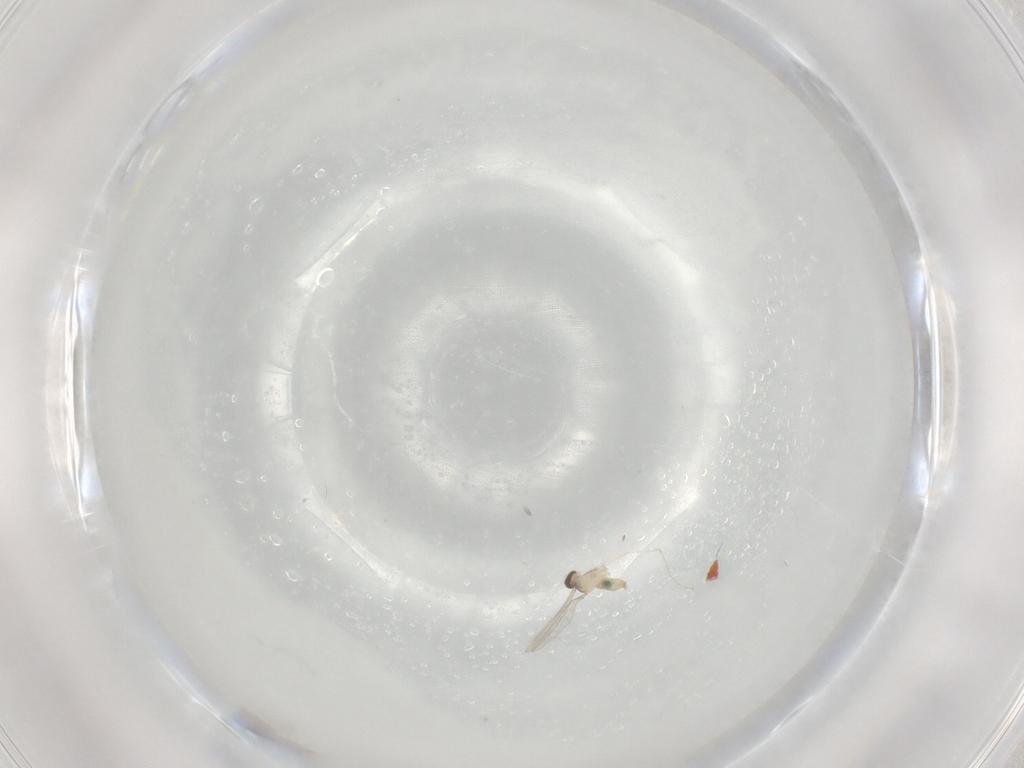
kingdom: Animalia
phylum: Arthropoda
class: Insecta
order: Diptera
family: Cecidomyiidae
